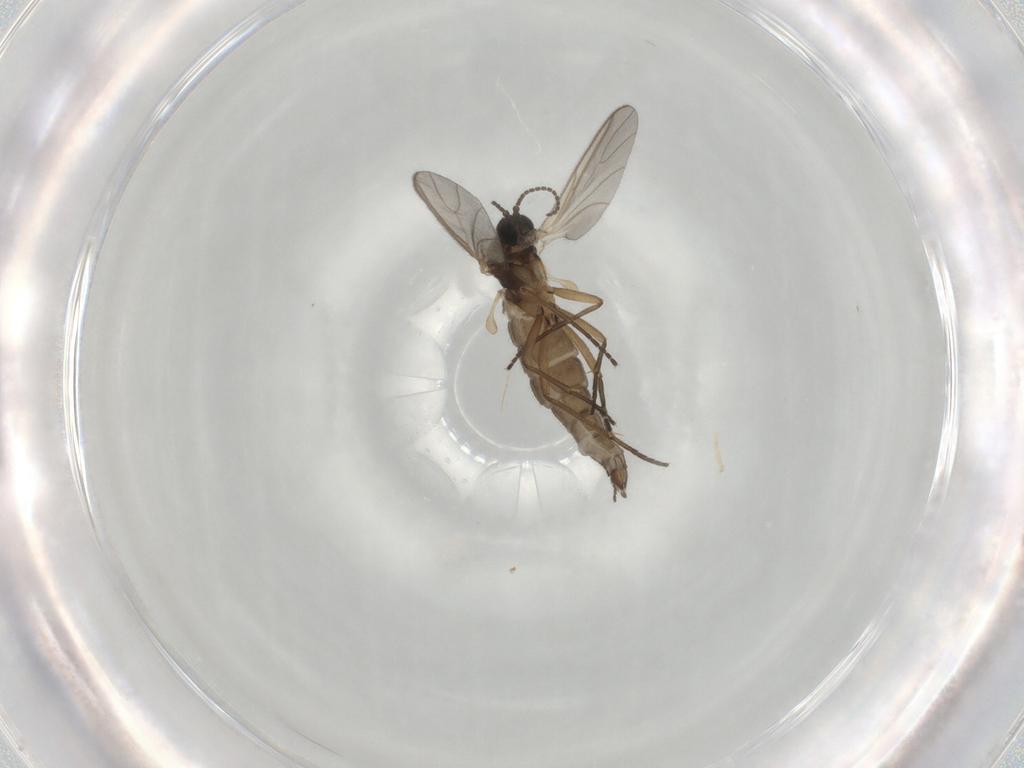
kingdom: Animalia
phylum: Arthropoda
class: Insecta
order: Diptera
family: Sciaridae
